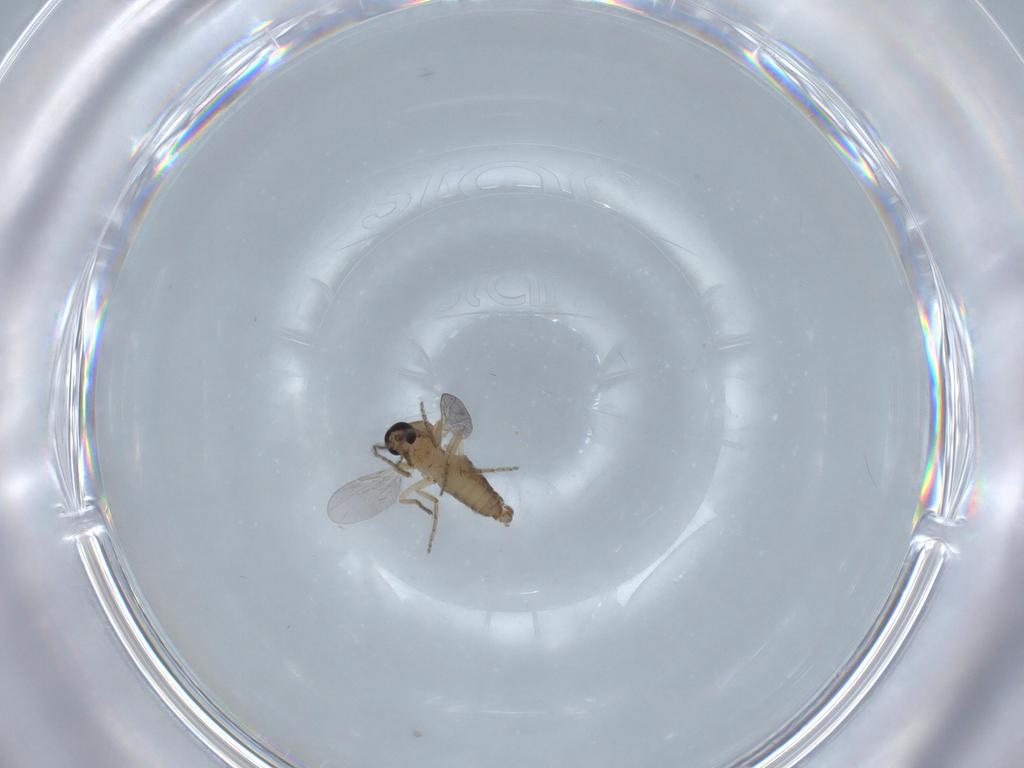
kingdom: Animalia
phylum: Arthropoda
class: Insecta
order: Diptera
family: Ceratopogonidae
